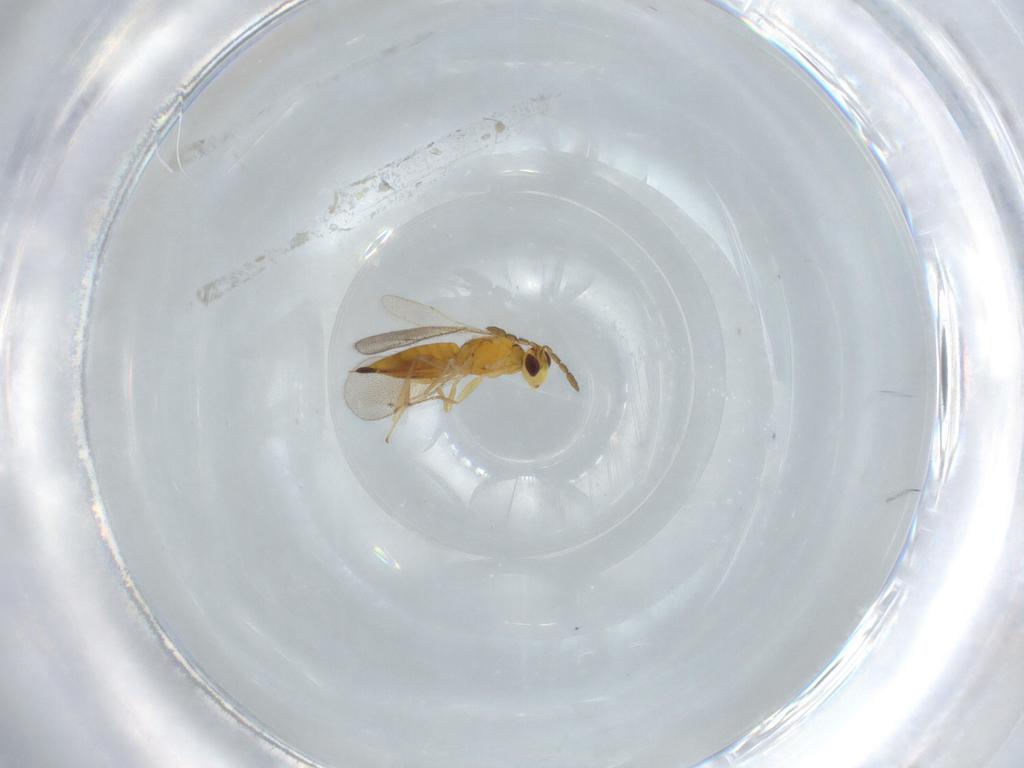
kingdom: Animalia
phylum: Arthropoda
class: Insecta
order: Hymenoptera
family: Eulophidae
